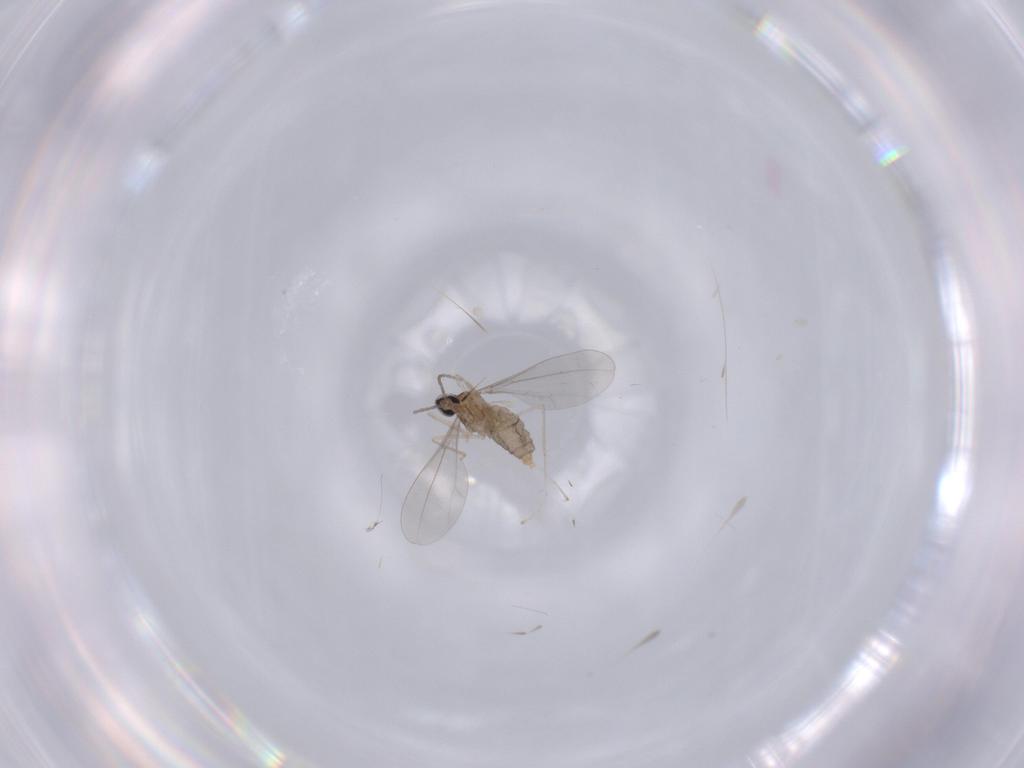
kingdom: Animalia
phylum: Arthropoda
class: Insecta
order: Diptera
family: Cecidomyiidae
